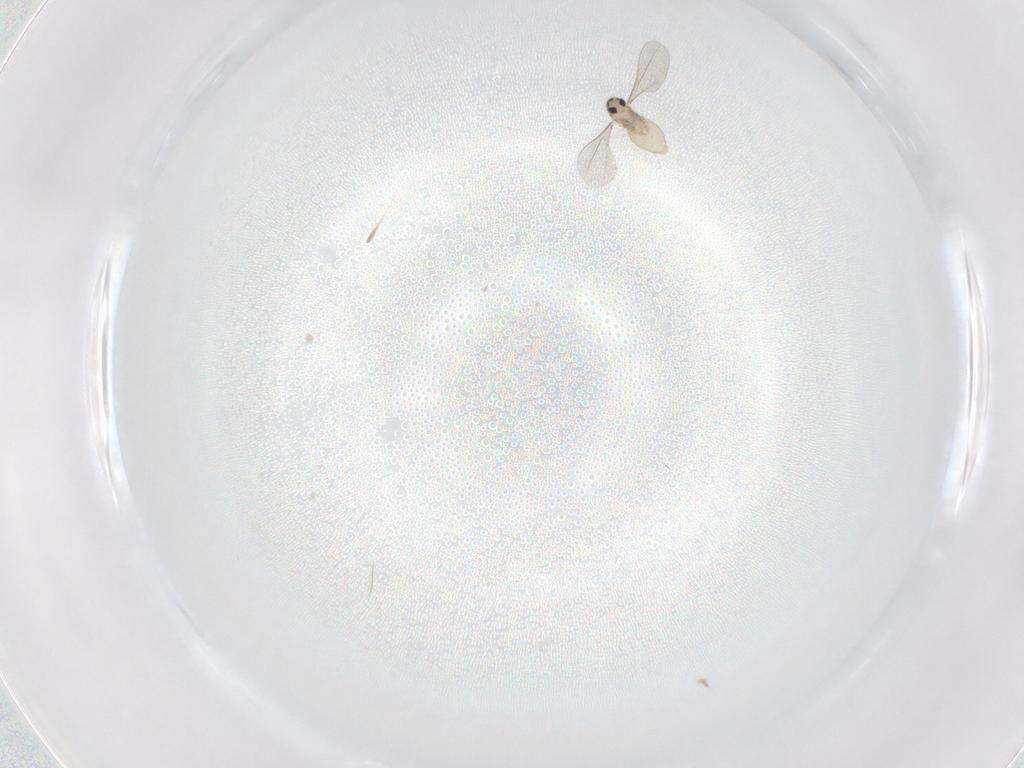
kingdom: Animalia
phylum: Arthropoda
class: Insecta
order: Diptera
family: Cecidomyiidae
